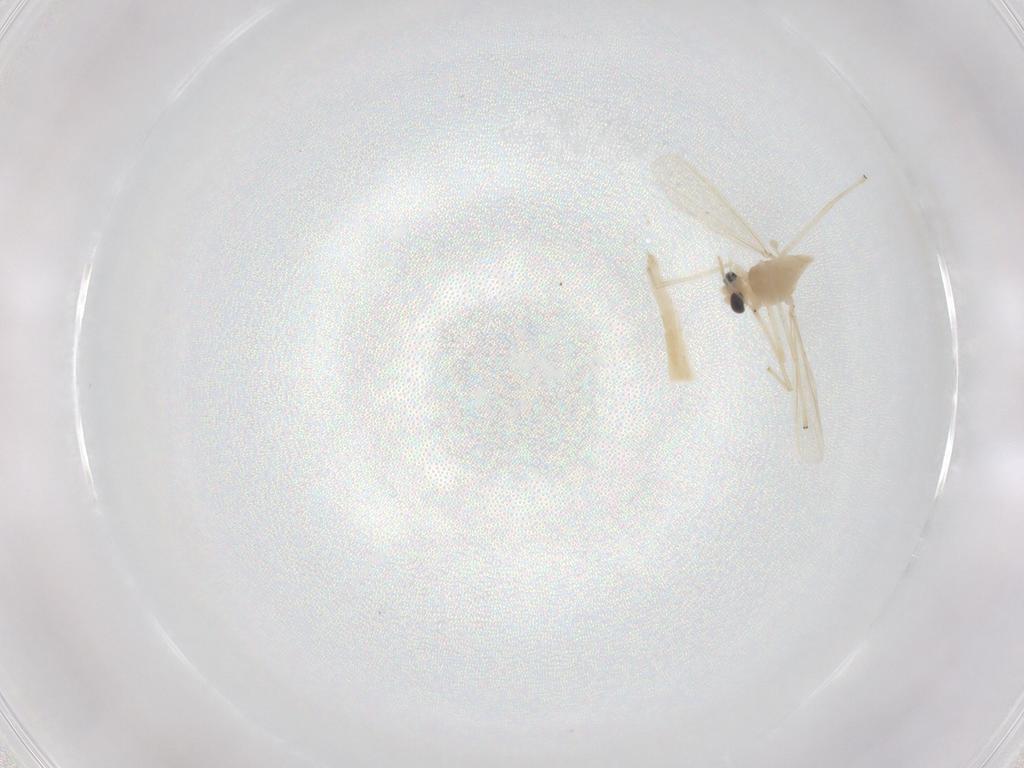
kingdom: Animalia
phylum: Arthropoda
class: Insecta
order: Diptera
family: Chironomidae
